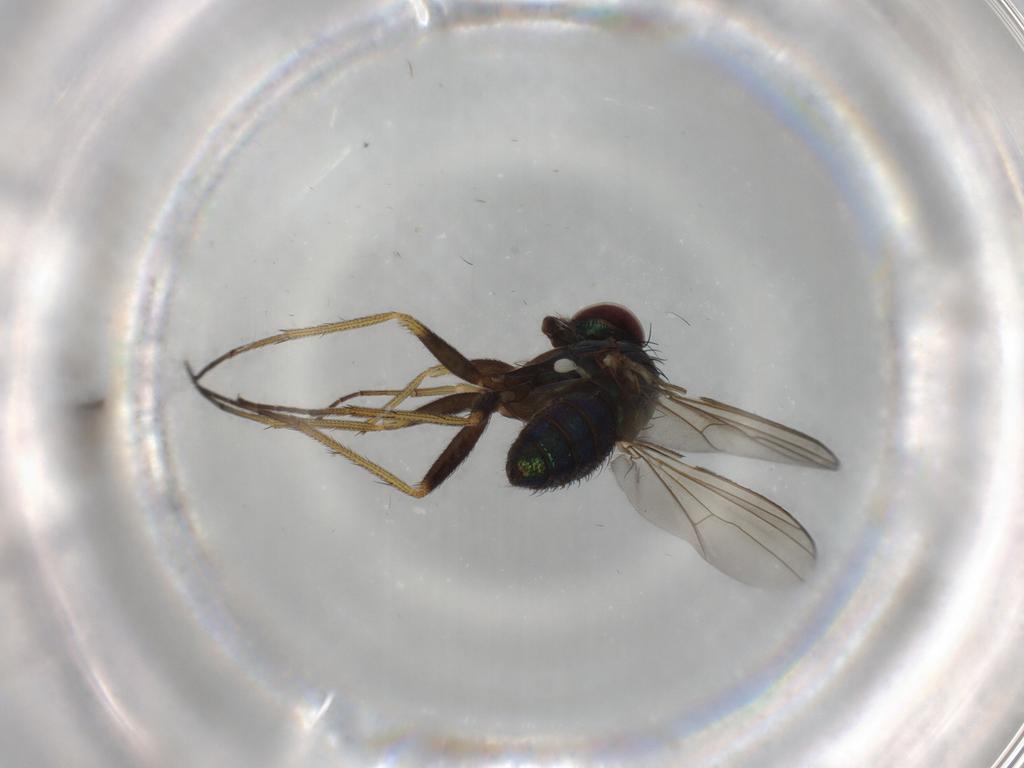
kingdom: Animalia
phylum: Arthropoda
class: Insecta
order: Diptera
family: Dolichopodidae
